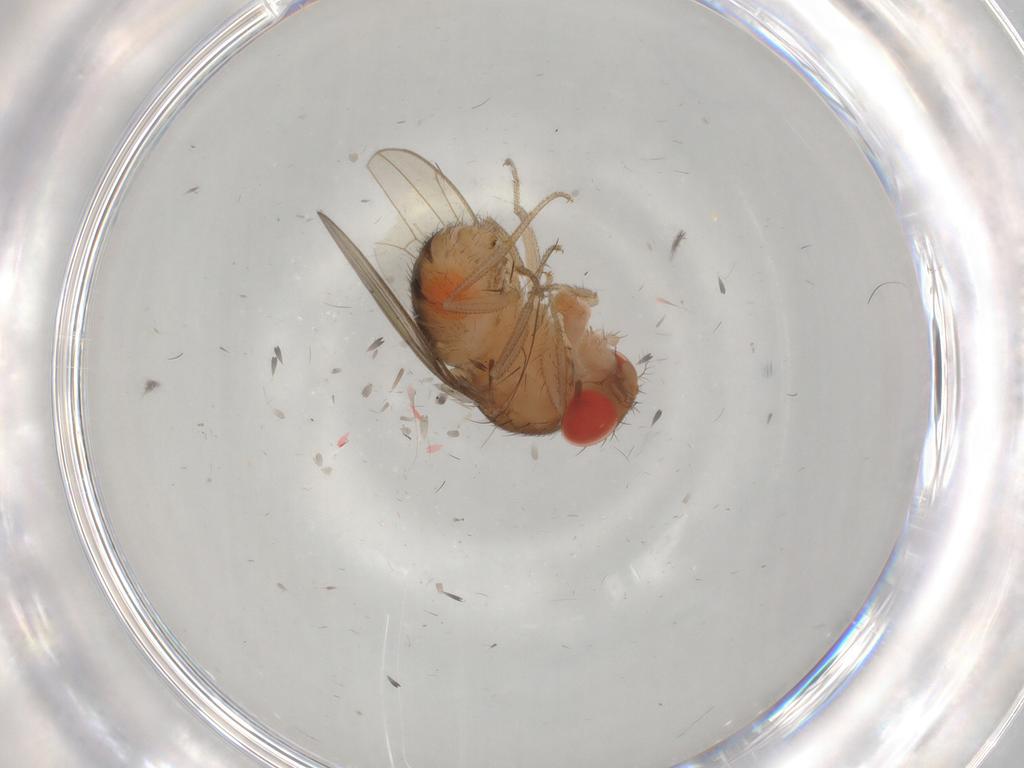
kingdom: Animalia
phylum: Arthropoda
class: Insecta
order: Diptera
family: Drosophilidae
